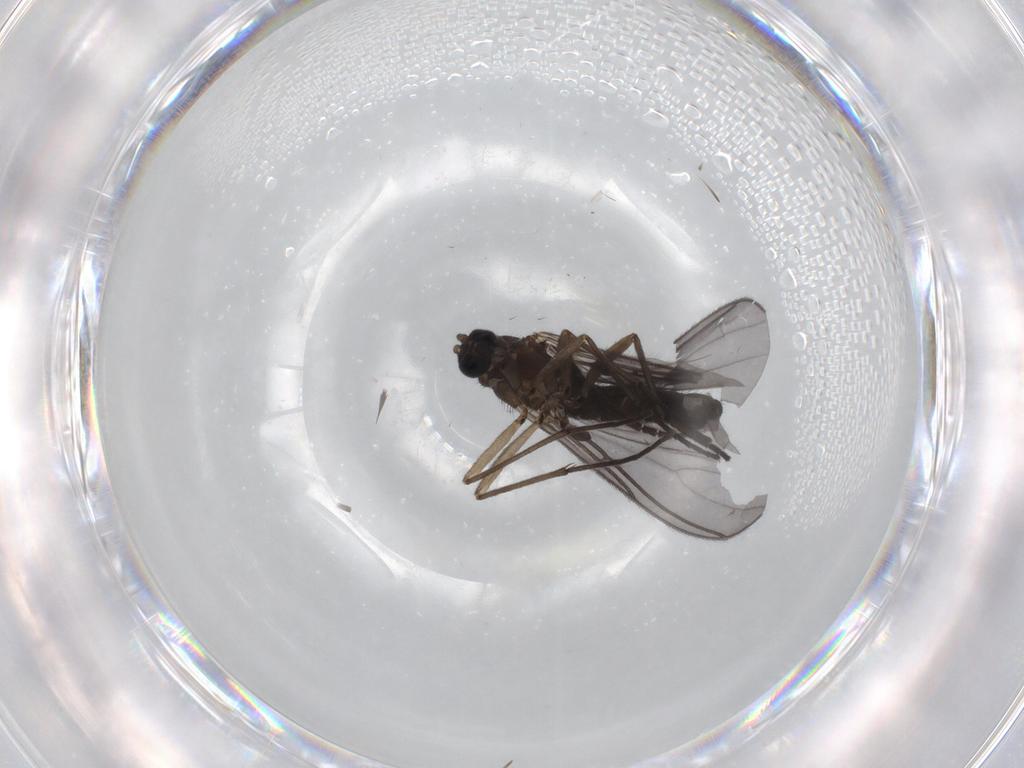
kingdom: Animalia
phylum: Arthropoda
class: Insecta
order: Diptera
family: Sciaridae
